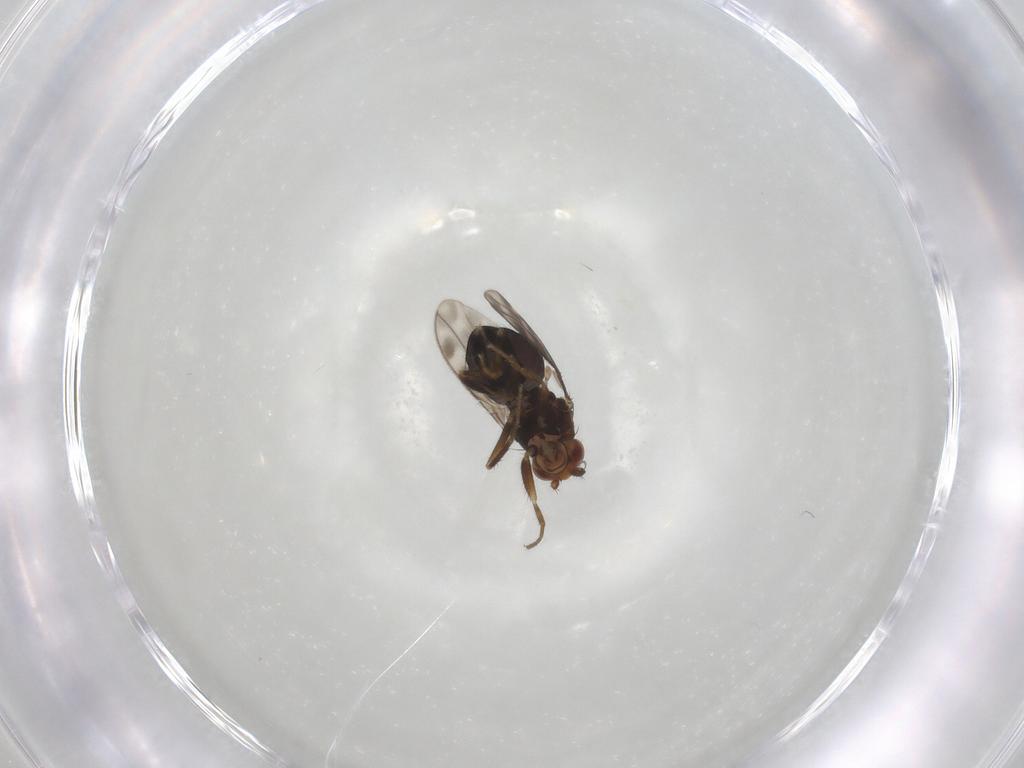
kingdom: Animalia
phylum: Arthropoda
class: Insecta
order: Diptera
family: Sphaeroceridae
